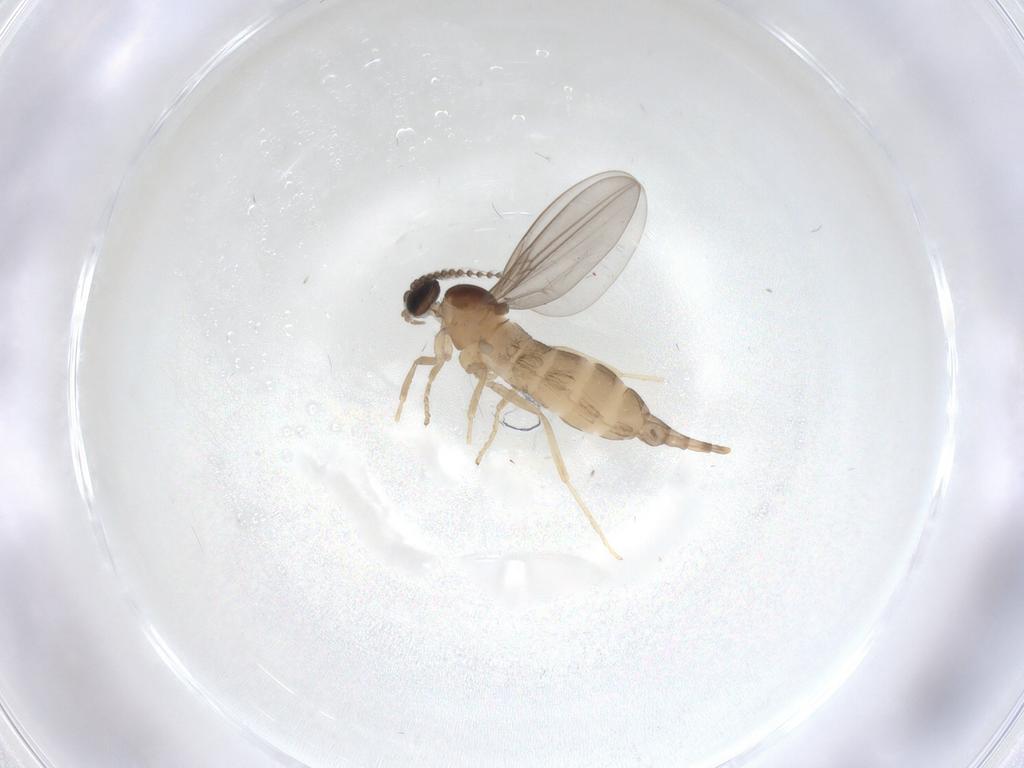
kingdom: Animalia
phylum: Arthropoda
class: Insecta
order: Diptera
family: Cecidomyiidae
